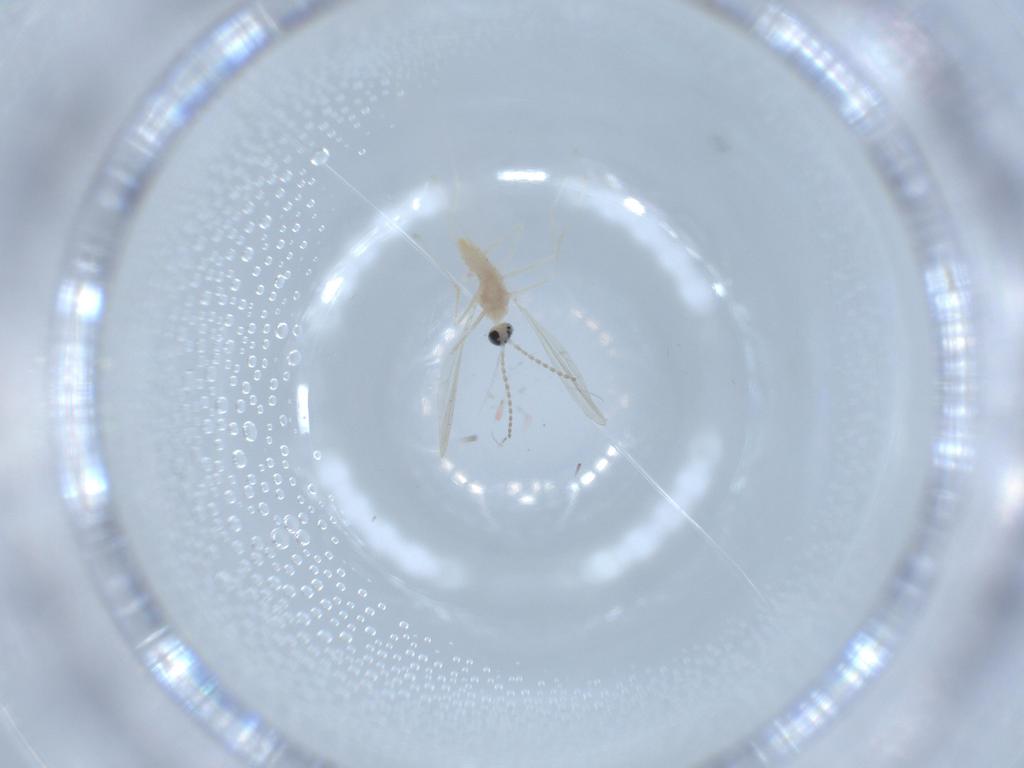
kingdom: Animalia
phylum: Arthropoda
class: Insecta
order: Diptera
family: Cecidomyiidae
